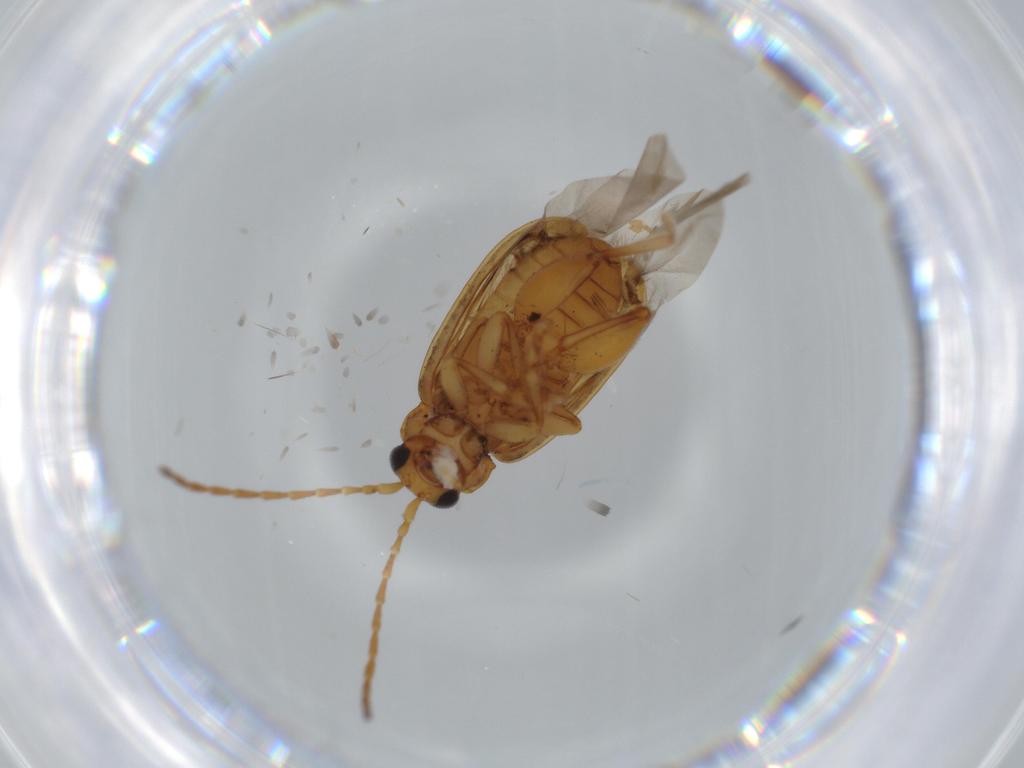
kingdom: Animalia
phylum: Arthropoda
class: Insecta
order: Coleoptera
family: Chrysomelidae
